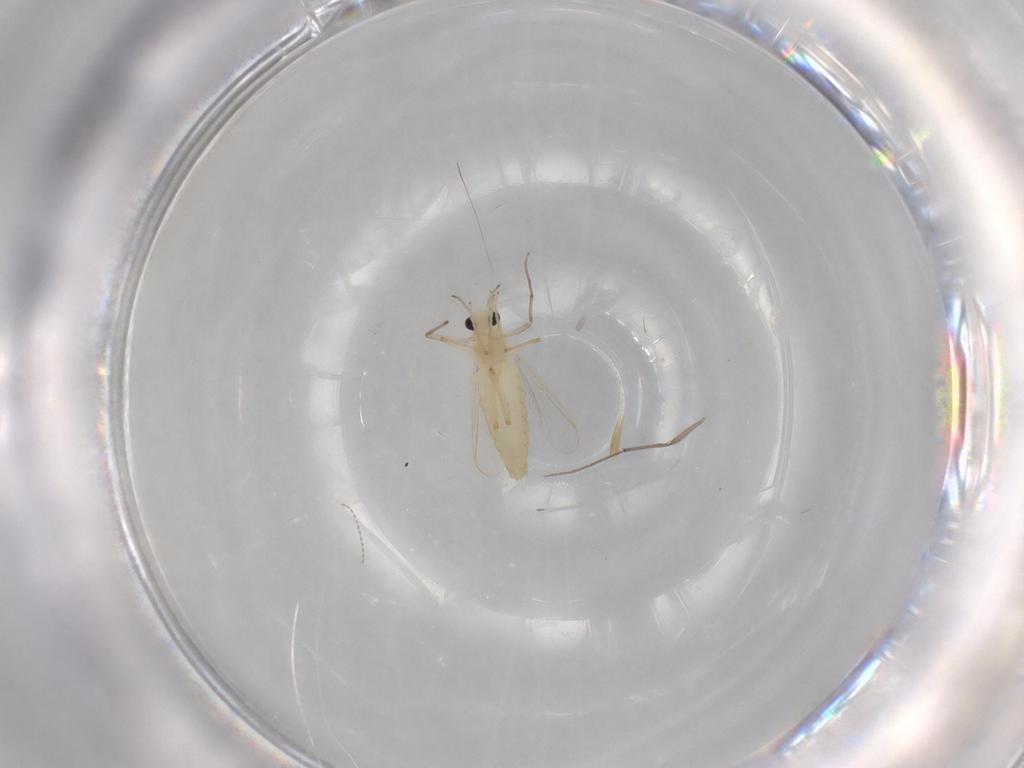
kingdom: Animalia
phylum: Arthropoda
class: Insecta
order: Diptera
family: Chironomidae
